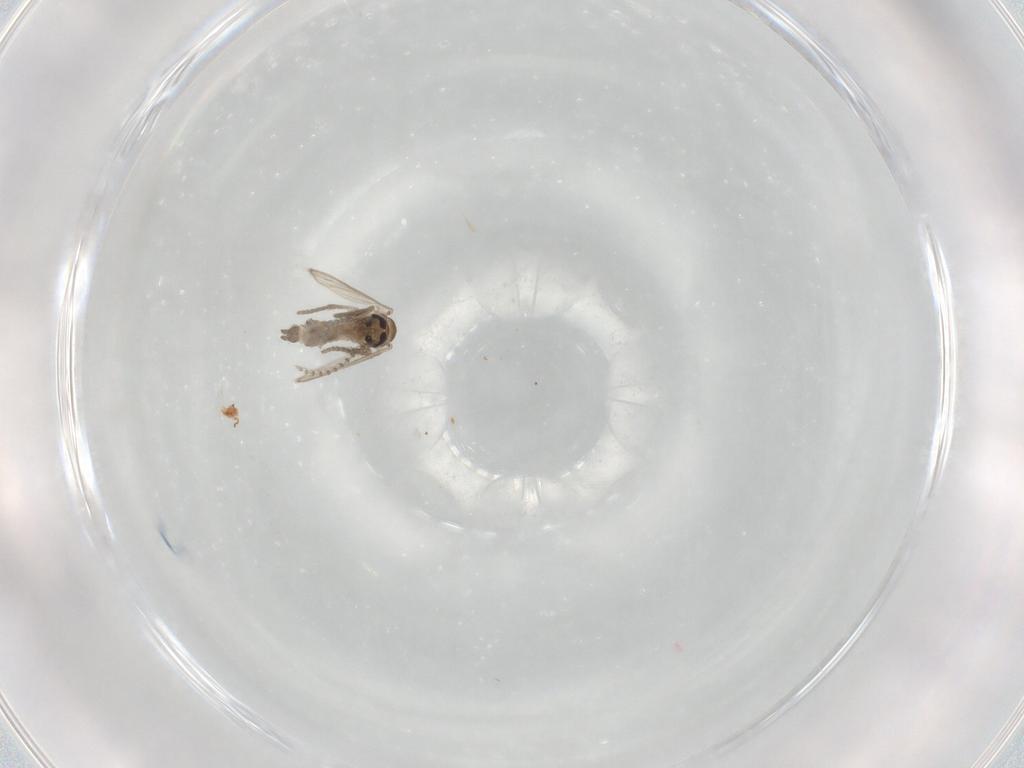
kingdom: Animalia
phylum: Arthropoda
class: Insecta
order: Diptera
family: Psychodidae
